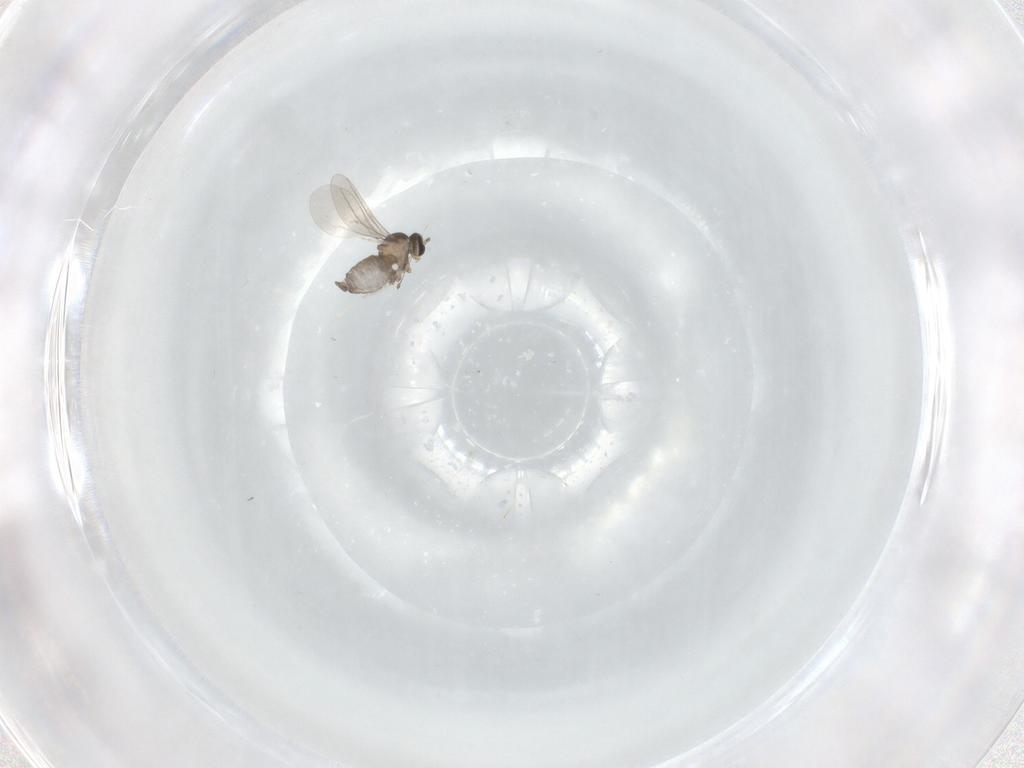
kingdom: Animalia
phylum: Arthropoda
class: Insecta
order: Diptera
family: Cecidomyiidae
